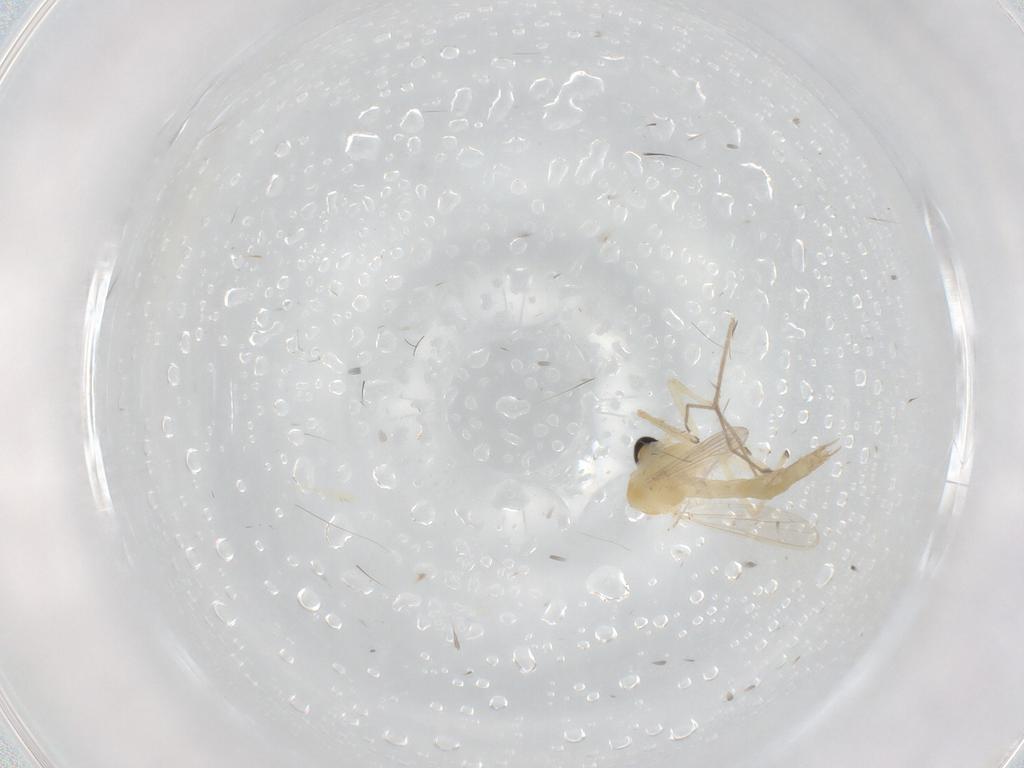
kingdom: Animalia
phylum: Arthropoda
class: Insecta
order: Diptera
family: Chironomidae
